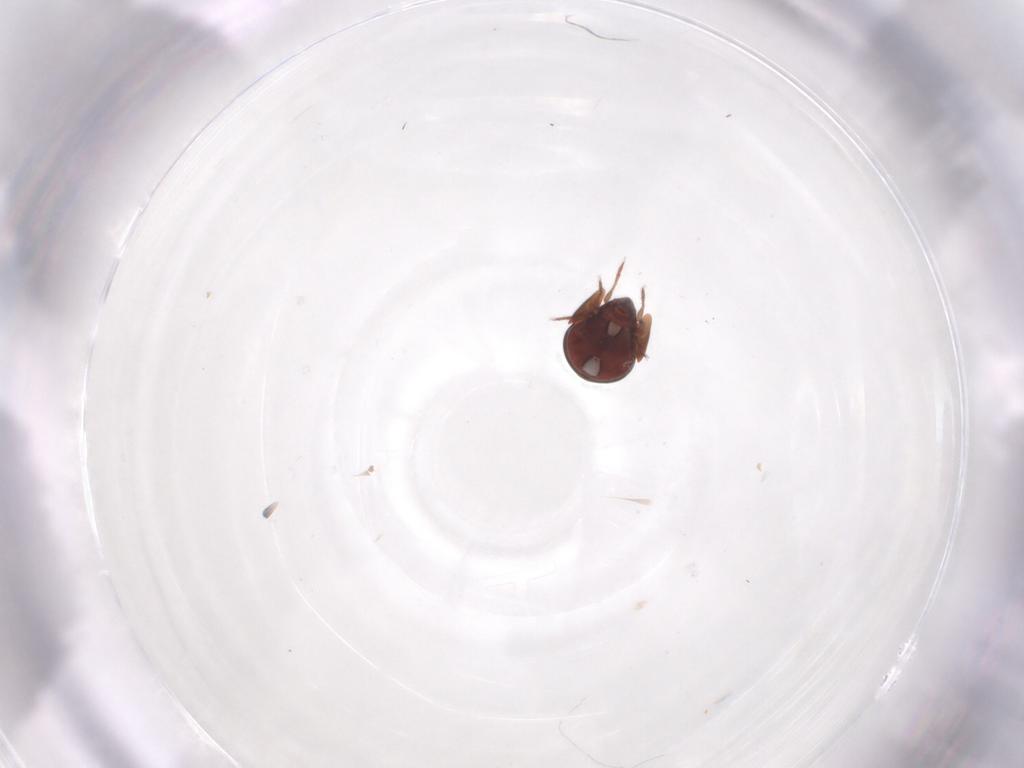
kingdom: Animalia
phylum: Arthropoda
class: Arachnida
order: Sarcoptiformes
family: Galumnidae
